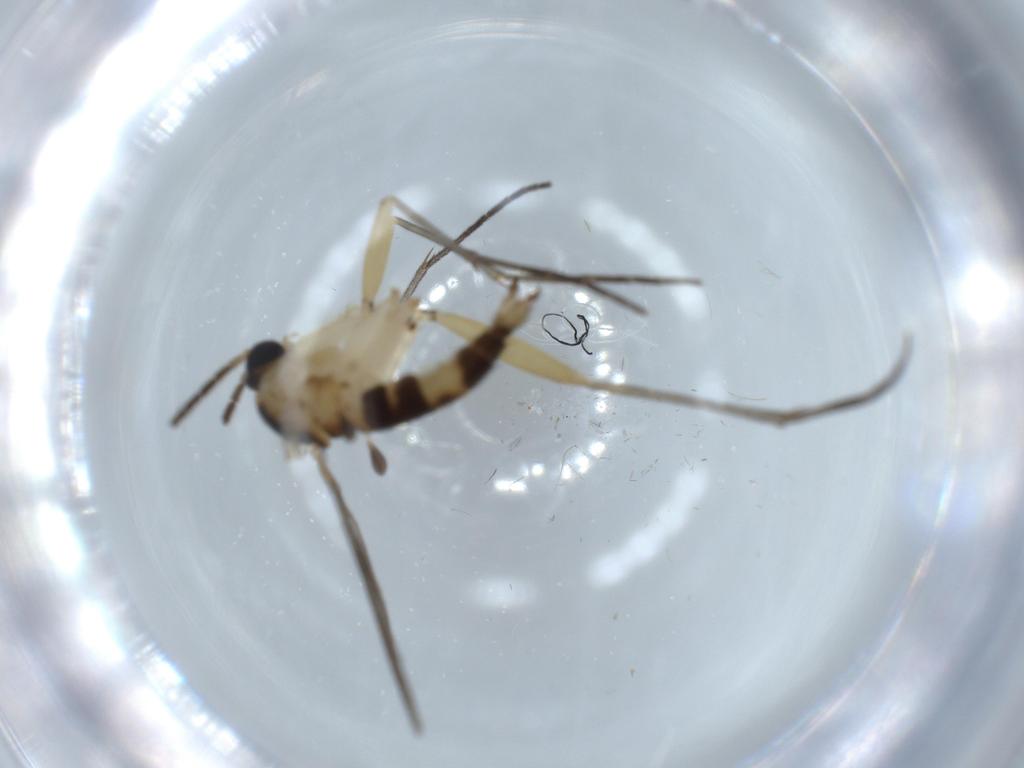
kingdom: Animalia
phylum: Arthropoda
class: Insecta
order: Diptera
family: Sciaridae
